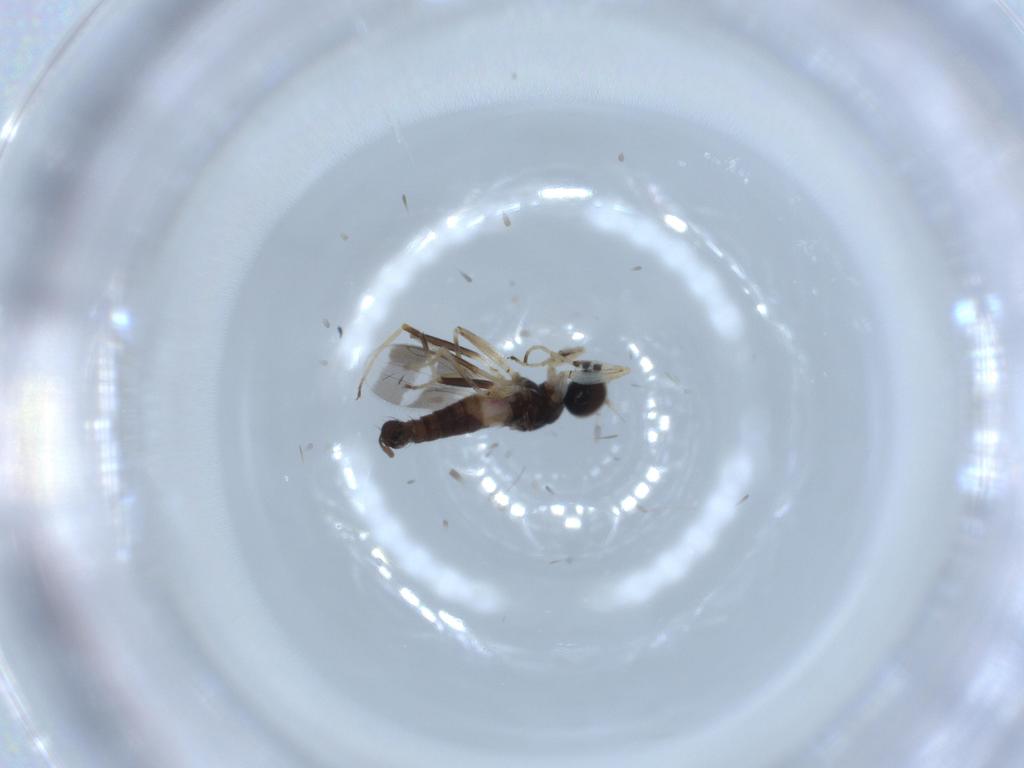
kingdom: Animalia
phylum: Arthropoda
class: Insecta
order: Diptera
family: Hybotidae
